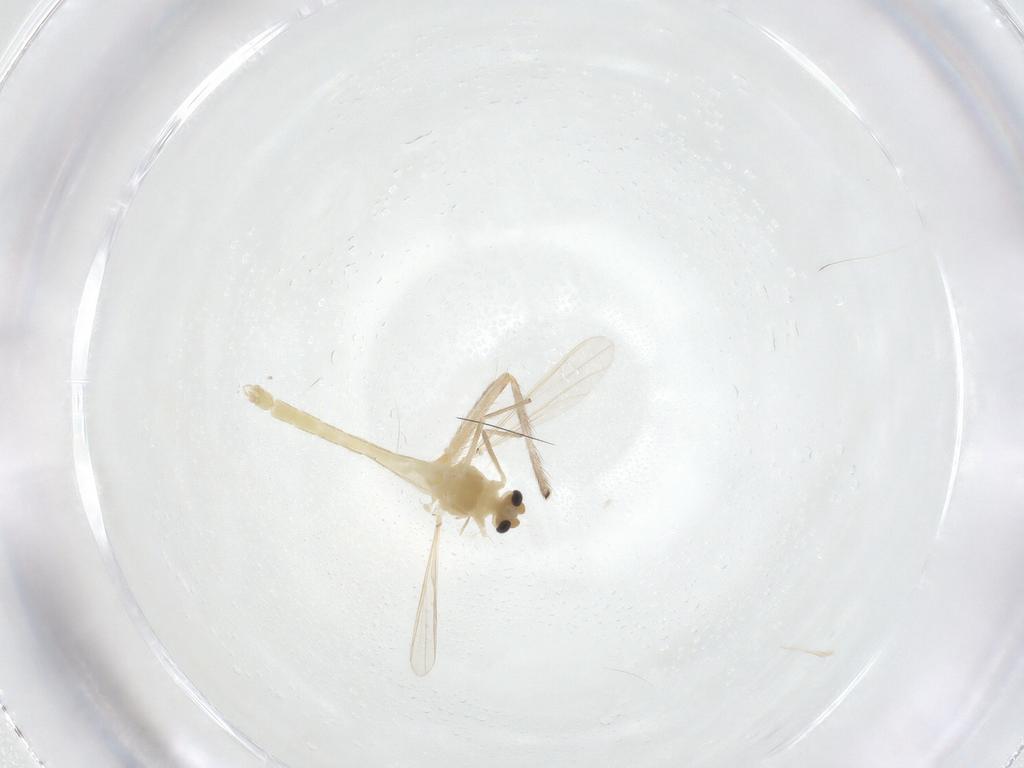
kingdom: Animalia
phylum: Arthropoda
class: Insecta
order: Diptera
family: Chironomidae
